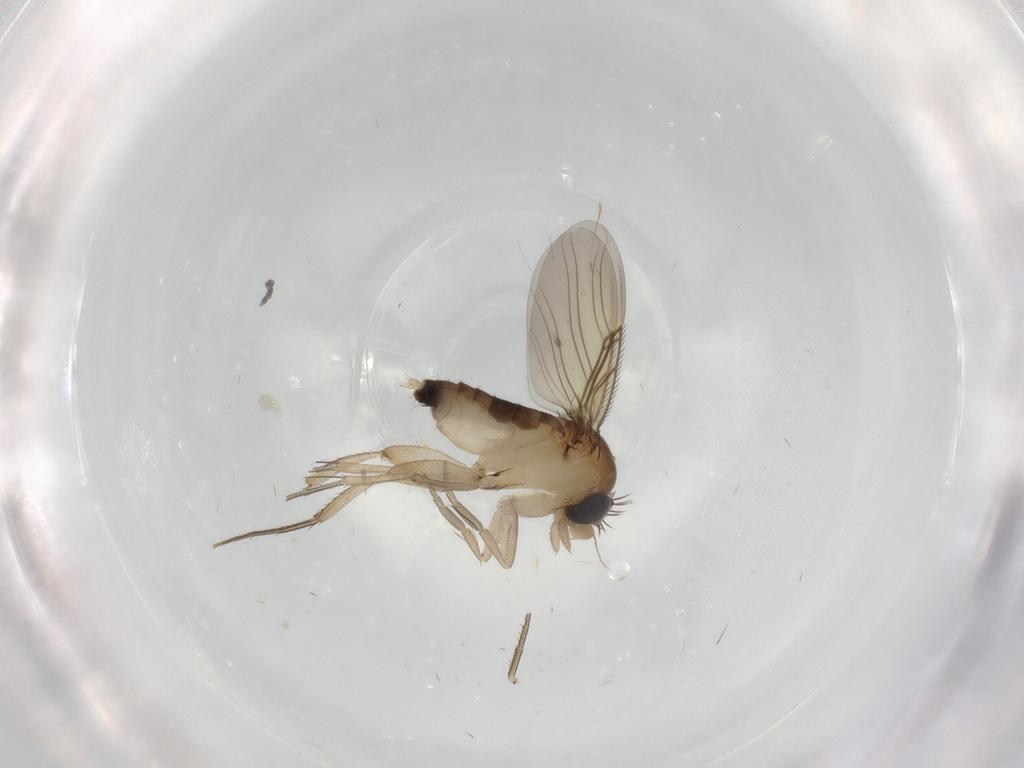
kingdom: Animalia
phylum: Arthropoda
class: Insecta
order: Diptera
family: Phoridae
